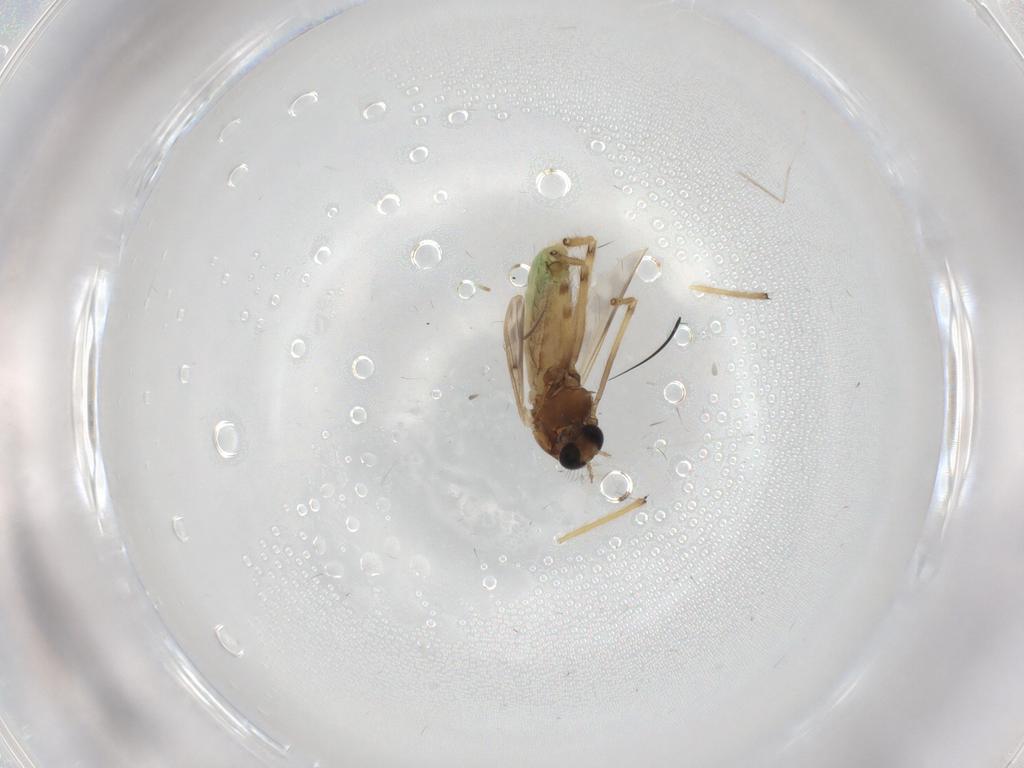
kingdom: Animalia
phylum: Arthropoda
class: Insecta
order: Diptera
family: Chironomidae
